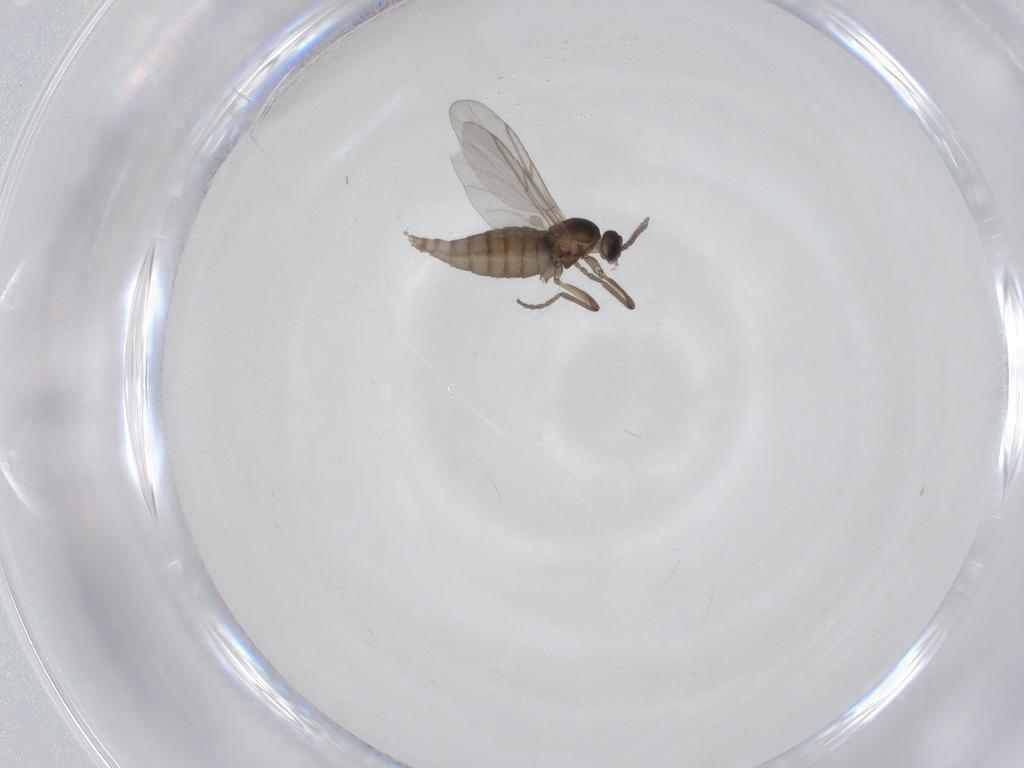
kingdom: Animalia
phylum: Arthropoda
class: Insecta
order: Diptera
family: Cecidomyiidae
